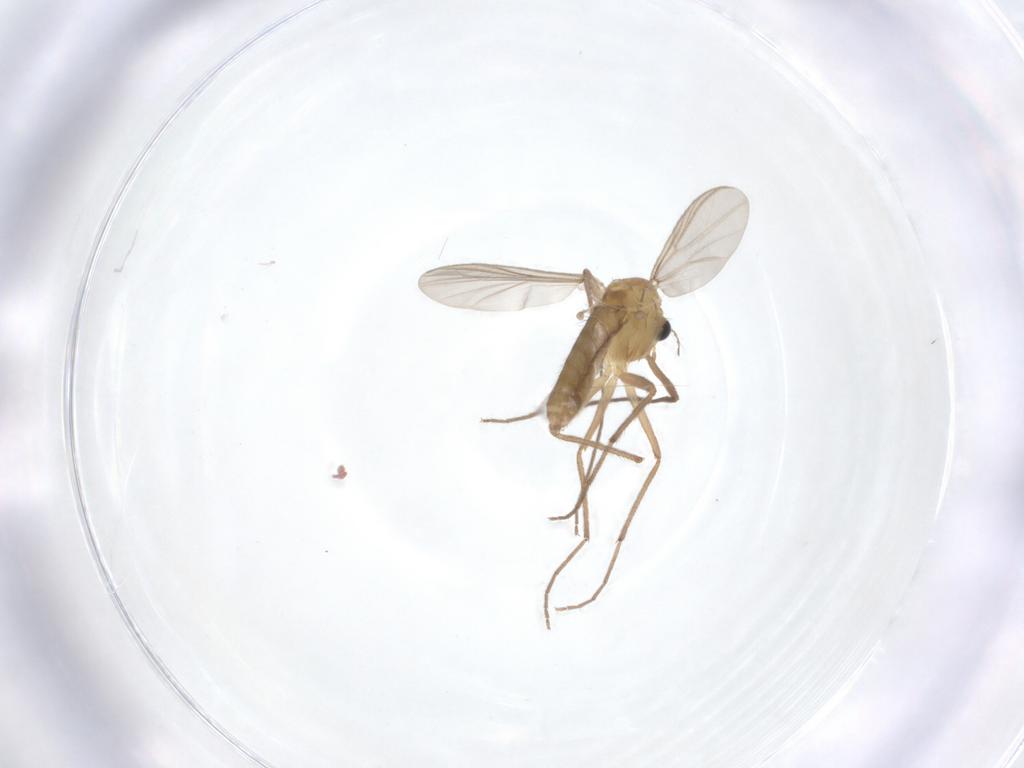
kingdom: Animalia
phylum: Arthropoda
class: Insecta
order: Diptera
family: Chironomidae
